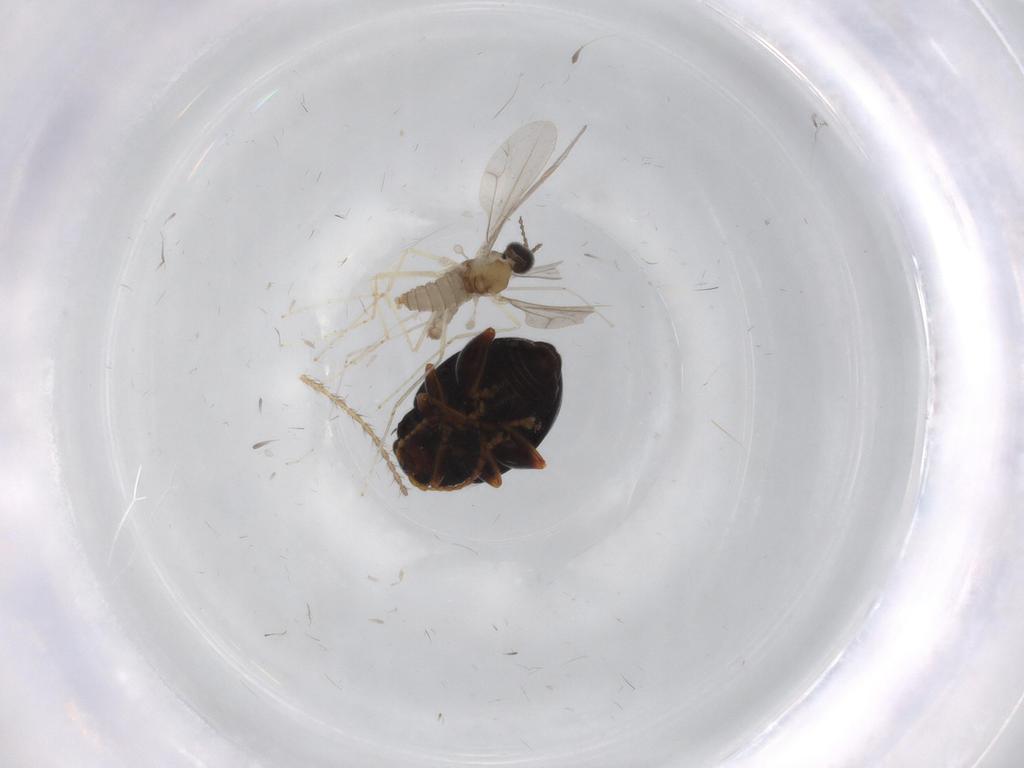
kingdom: Animalia
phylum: Arthropoda
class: Insecta
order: Diptera
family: Cecidomyiidae
